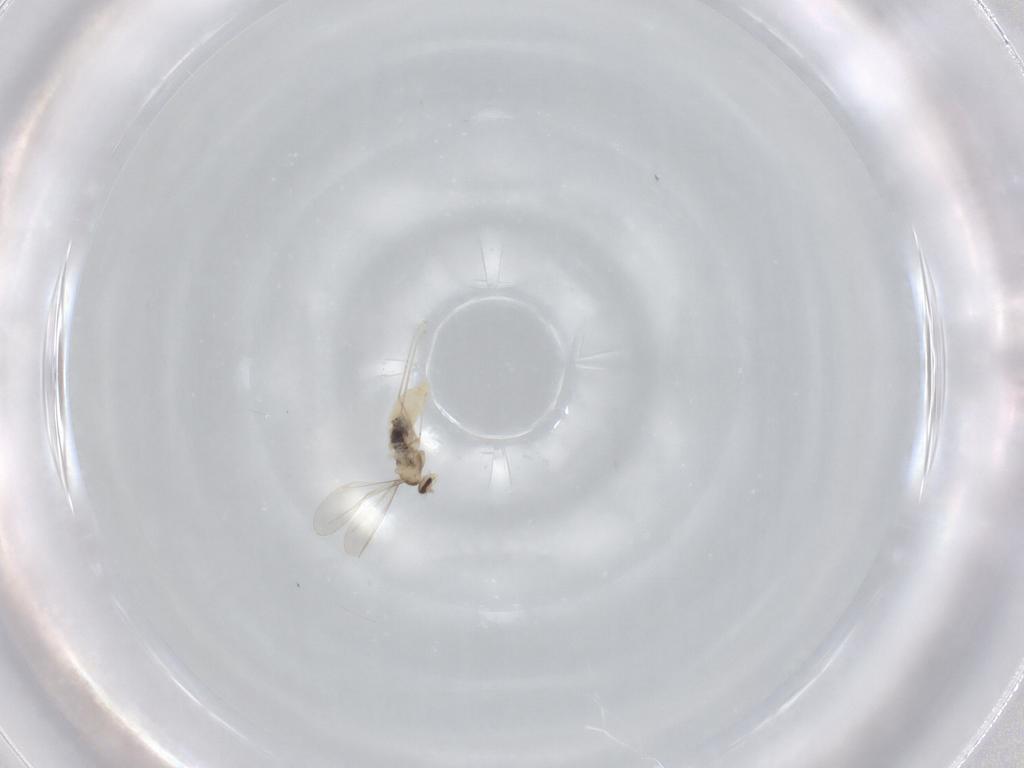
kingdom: Animalia
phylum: Arthropoda
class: Insecta
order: Diptera
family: Cecidomyiidae
